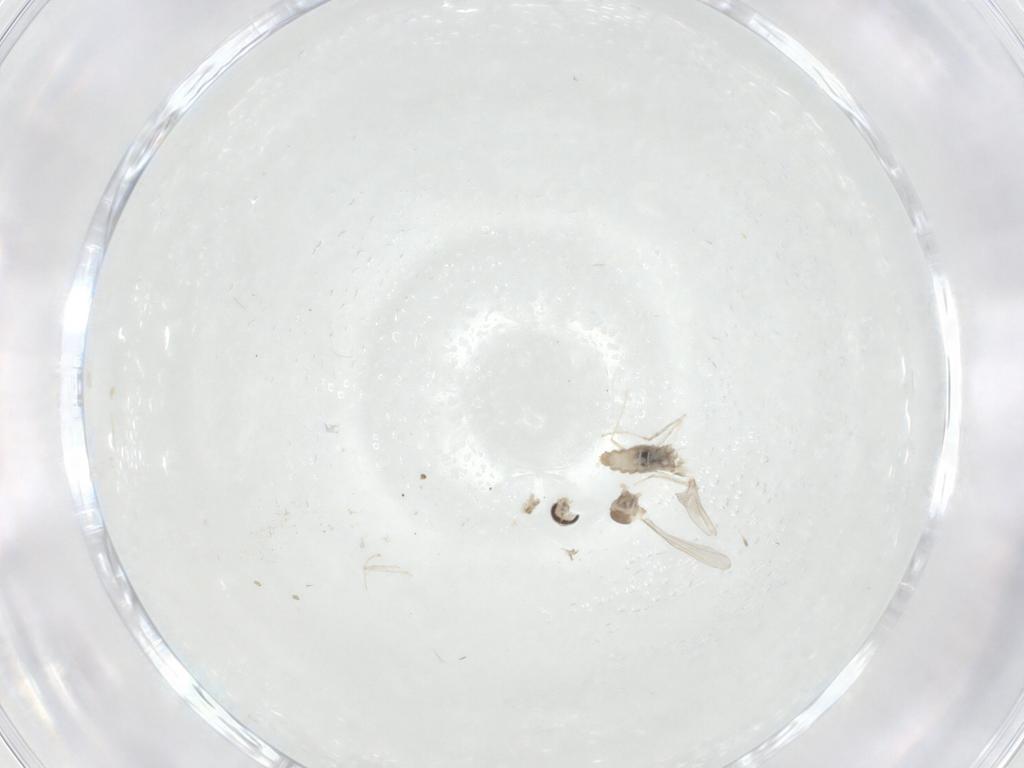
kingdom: Animalia
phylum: Arthropoda
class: Insecta
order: Diptera
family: Cecidomyiidae
